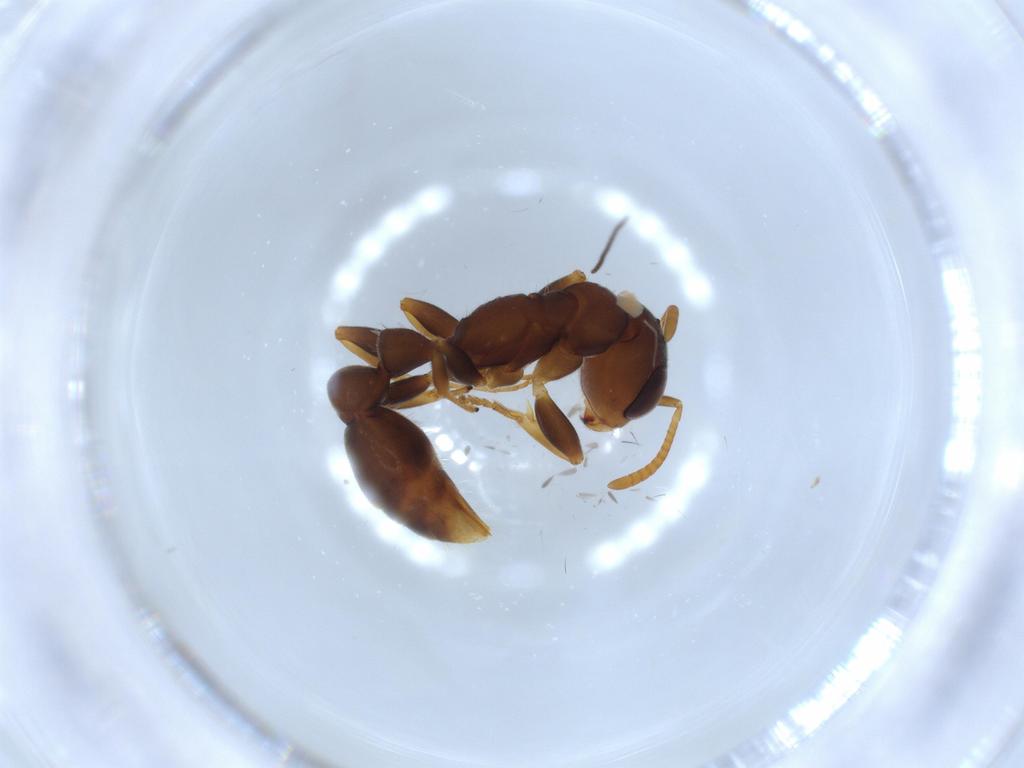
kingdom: Animalia
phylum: Arthropoda
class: Insecta
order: Hymenoptera
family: Formicidae
